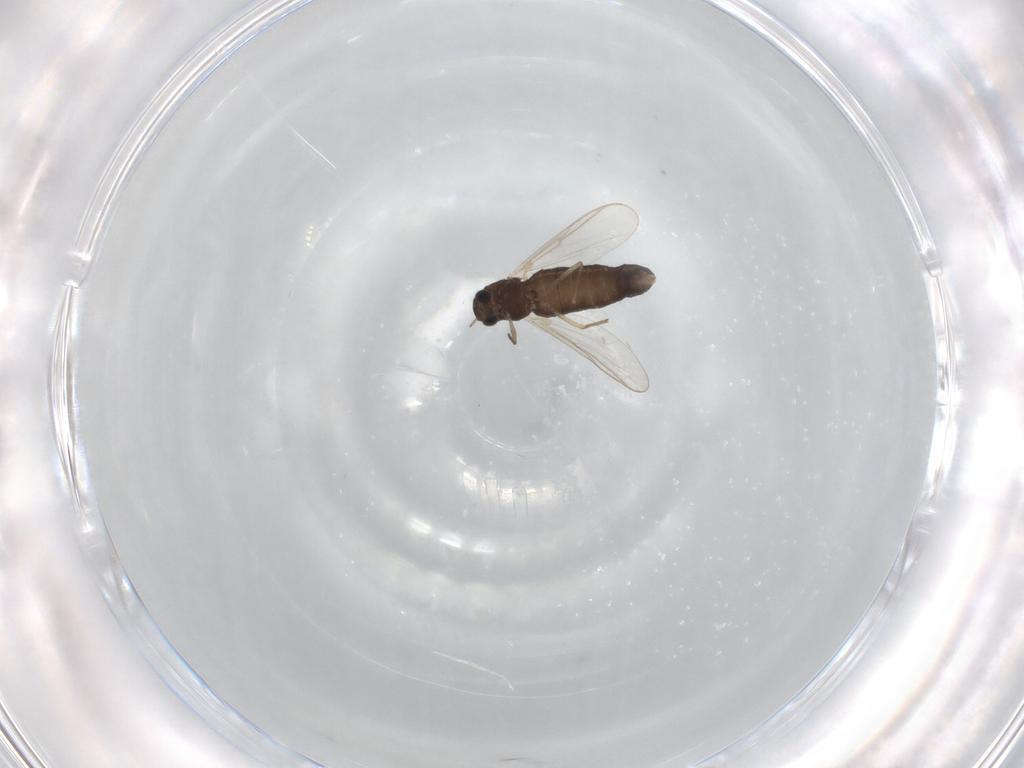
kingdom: Animalia
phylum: Arthropoda
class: Insecta
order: Diptera
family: Chironomidae
